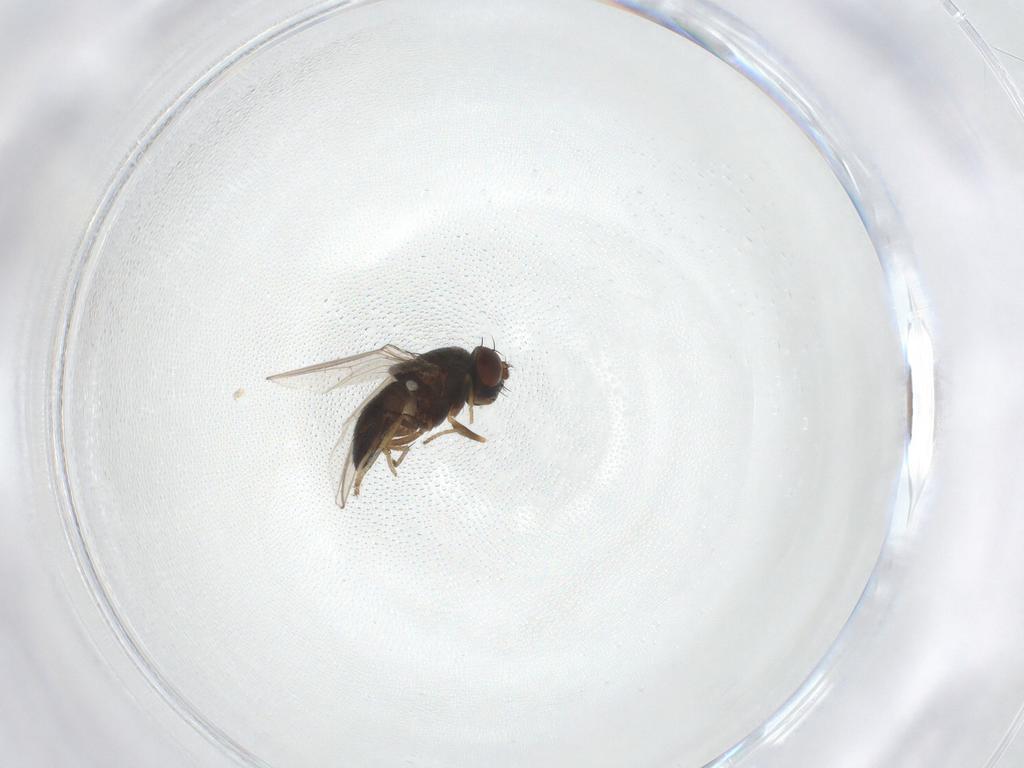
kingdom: Animalia
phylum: Arthropoda
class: Insecta
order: Diptera
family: Ephydridae
